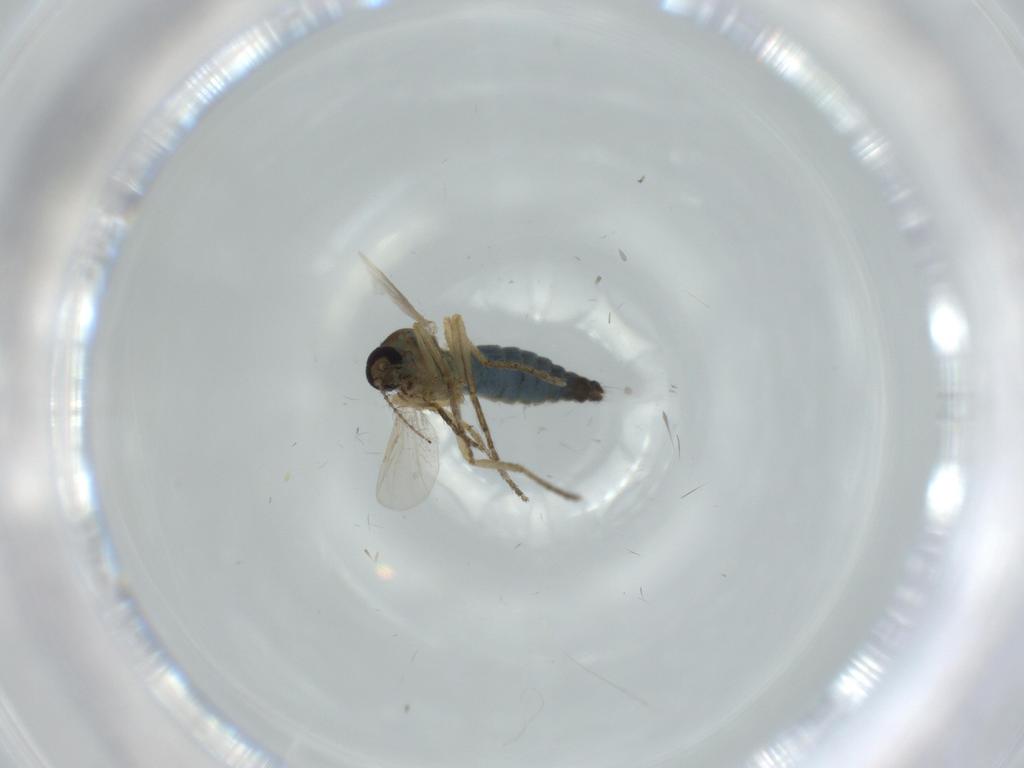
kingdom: Animalia
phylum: Arthropoda
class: Insecta
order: Diptera
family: Ceratopogonidae
